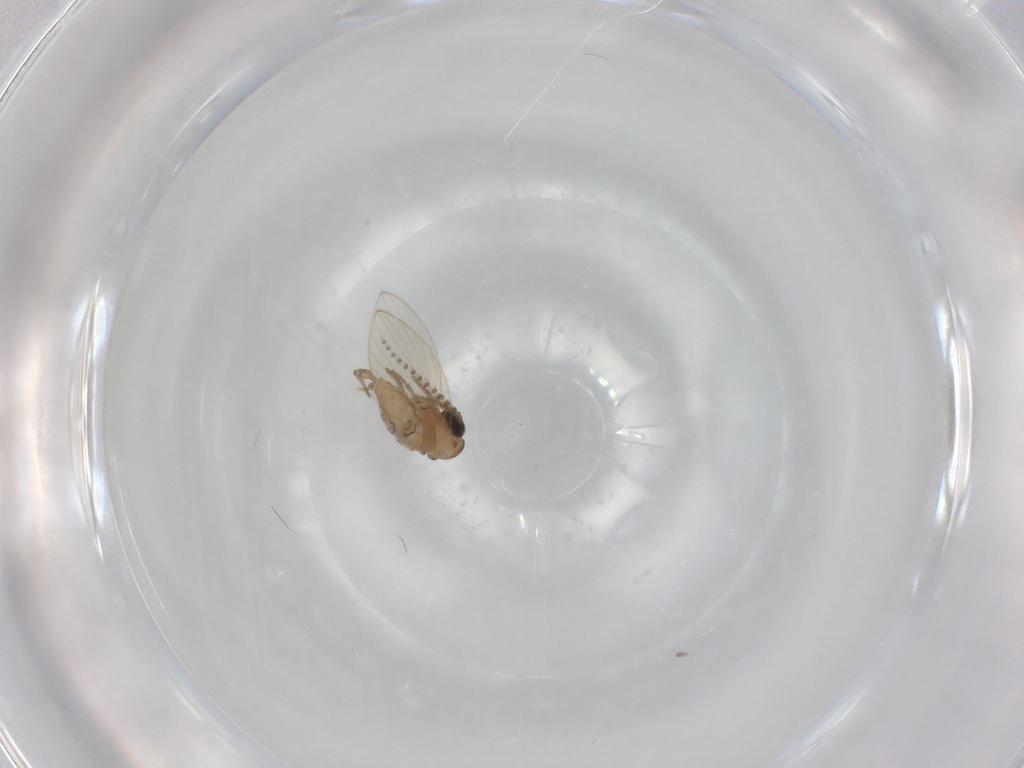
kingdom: Animalia
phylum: Arthropoda
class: Insecta
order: Diptera
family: Psychodidae
